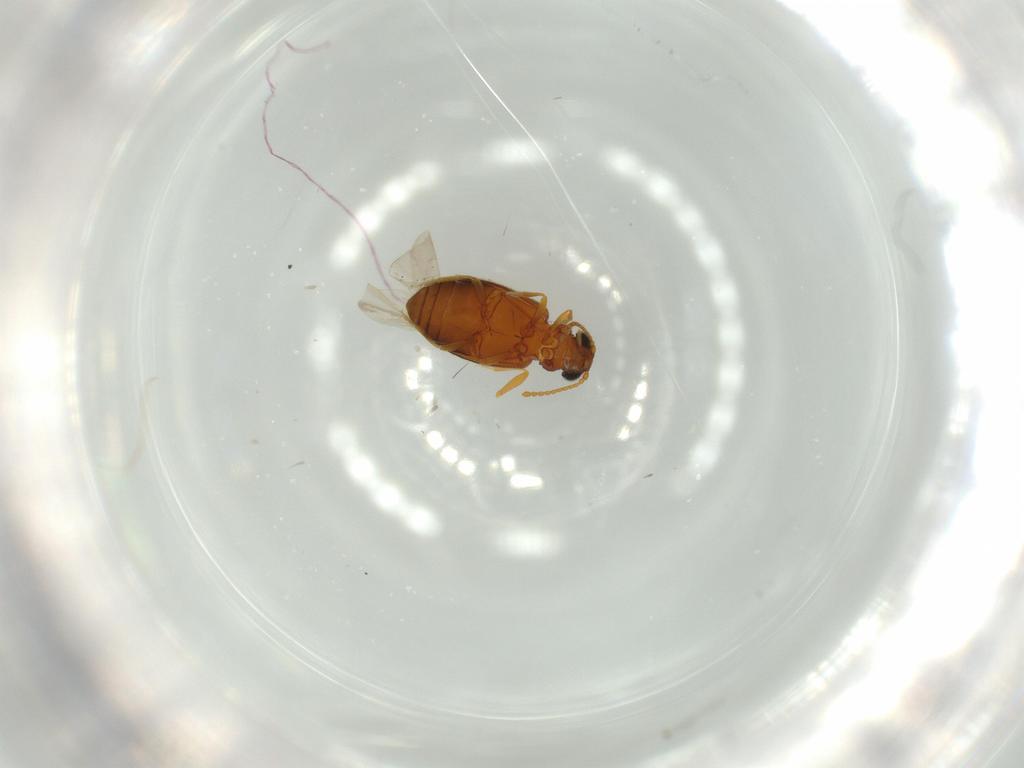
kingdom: Animalia
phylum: Arthropoda
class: Insecta
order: Coleoptera
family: Aderidae
